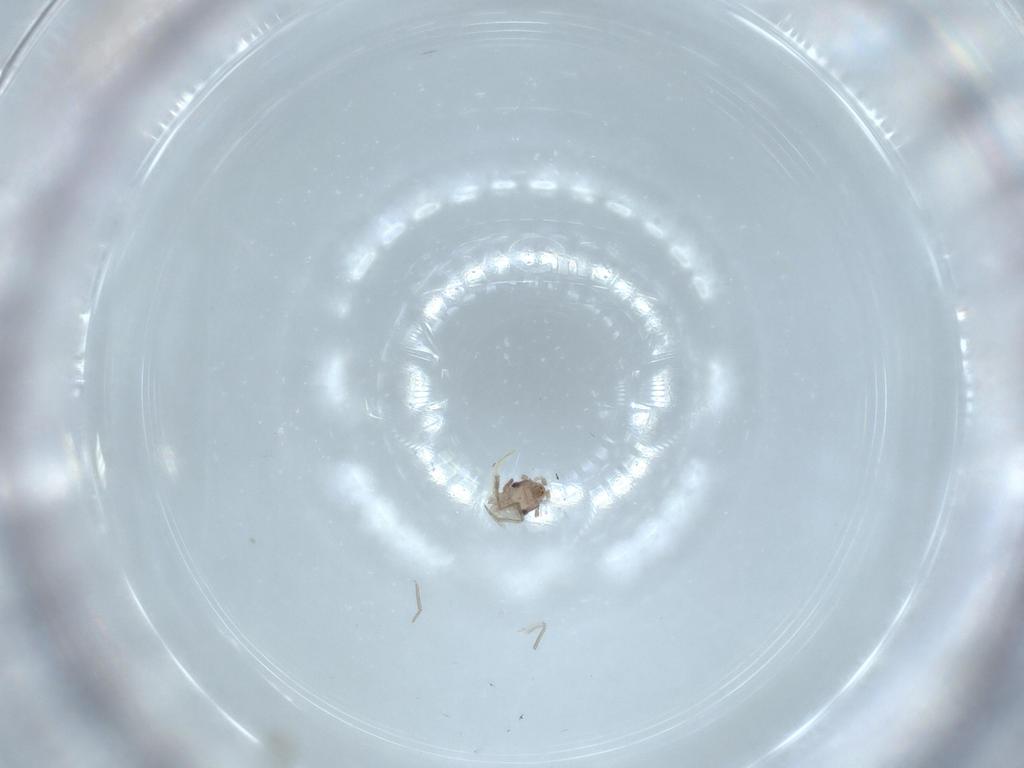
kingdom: Animalia
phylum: Arthropoda
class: Insecta
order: Psocodea
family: Lepidopsocidae
